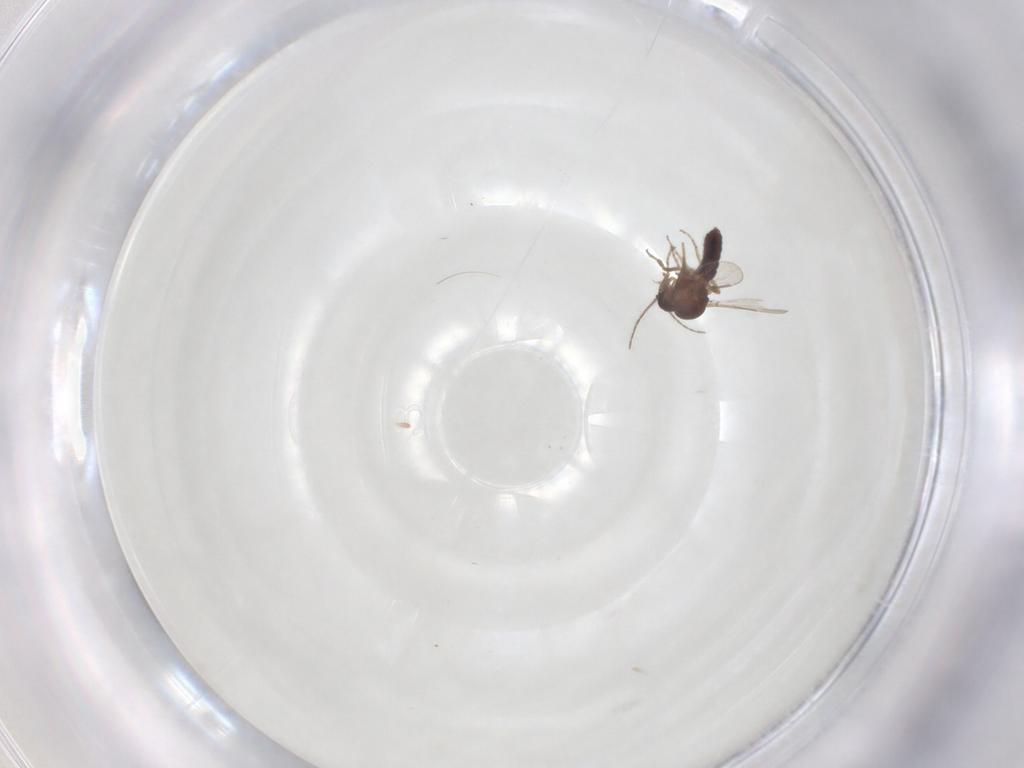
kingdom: Animalia
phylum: Arthropoda
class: Insecta
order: Diptera
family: Ceratopogonidae
